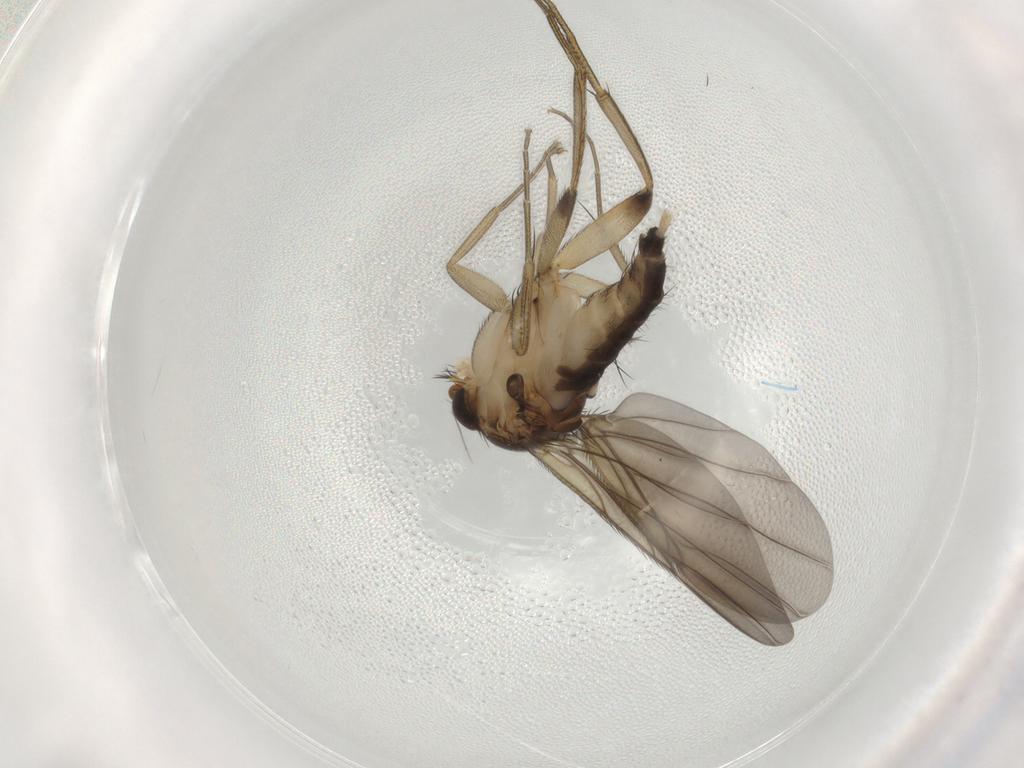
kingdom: Animalia
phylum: Arthropoda
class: Insecta
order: Diptera
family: Phoridae
